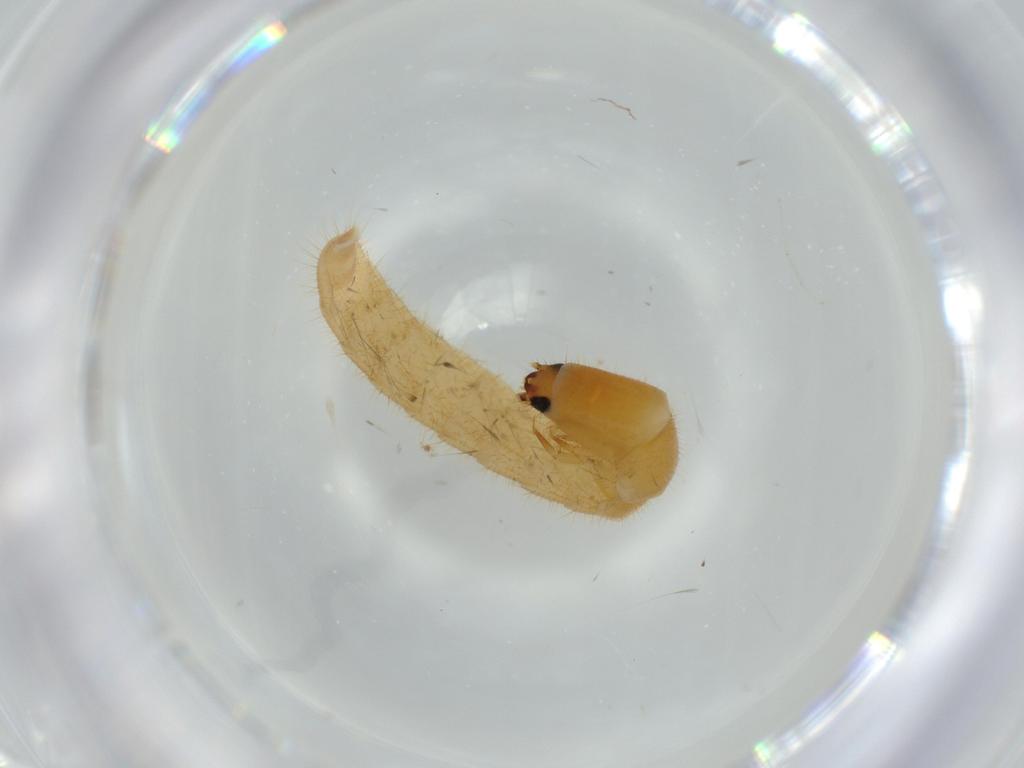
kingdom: Animalia
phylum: Arthropoda
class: Insecta
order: Coleoptera
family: Phengodidae
